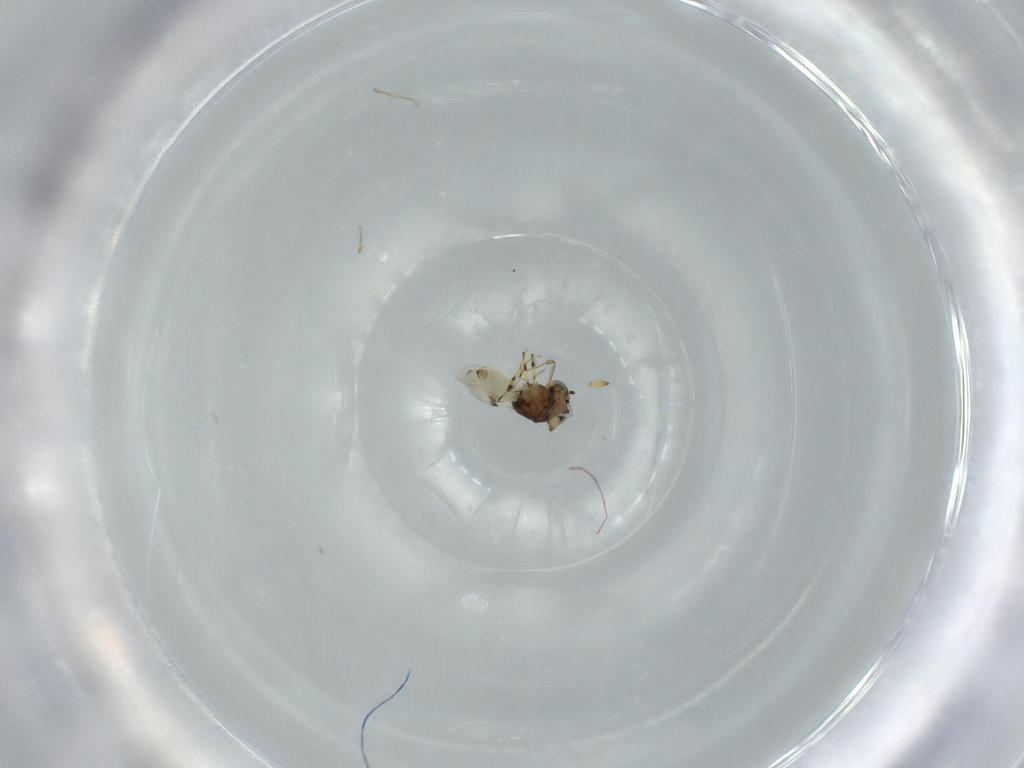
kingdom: Animalia
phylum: Arthropoda
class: Insecta
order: Hymenoptera
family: Scelionidae
